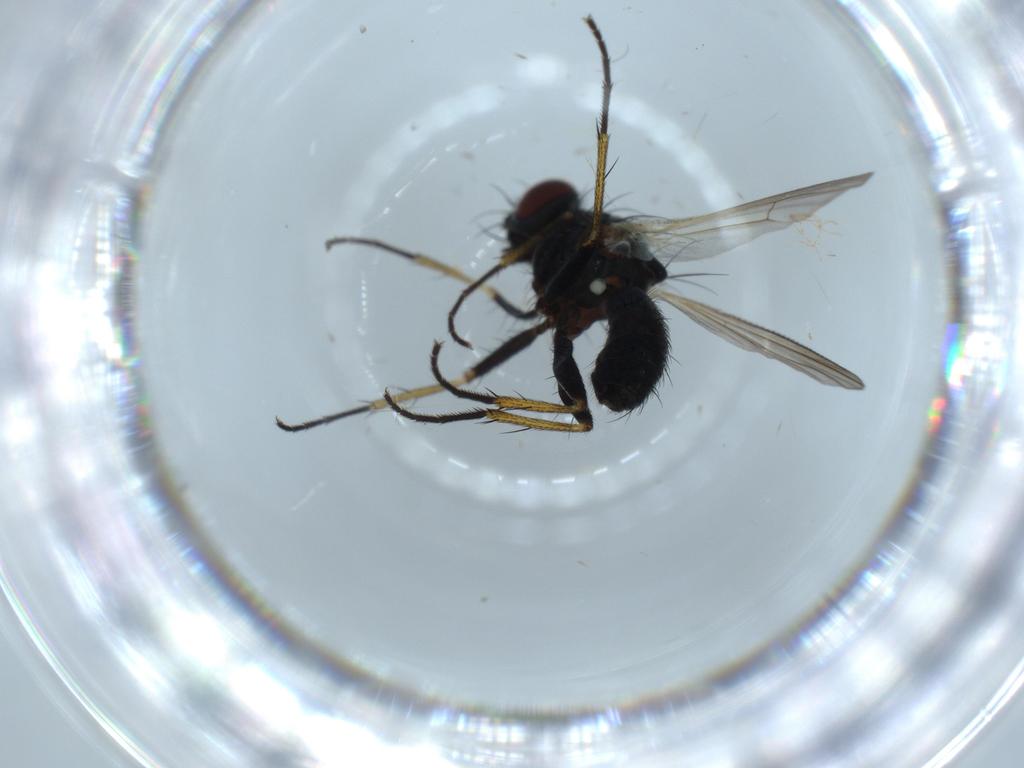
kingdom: Animalia
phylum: Arthropoda
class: Insecta
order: Diptera
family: Muscidae
